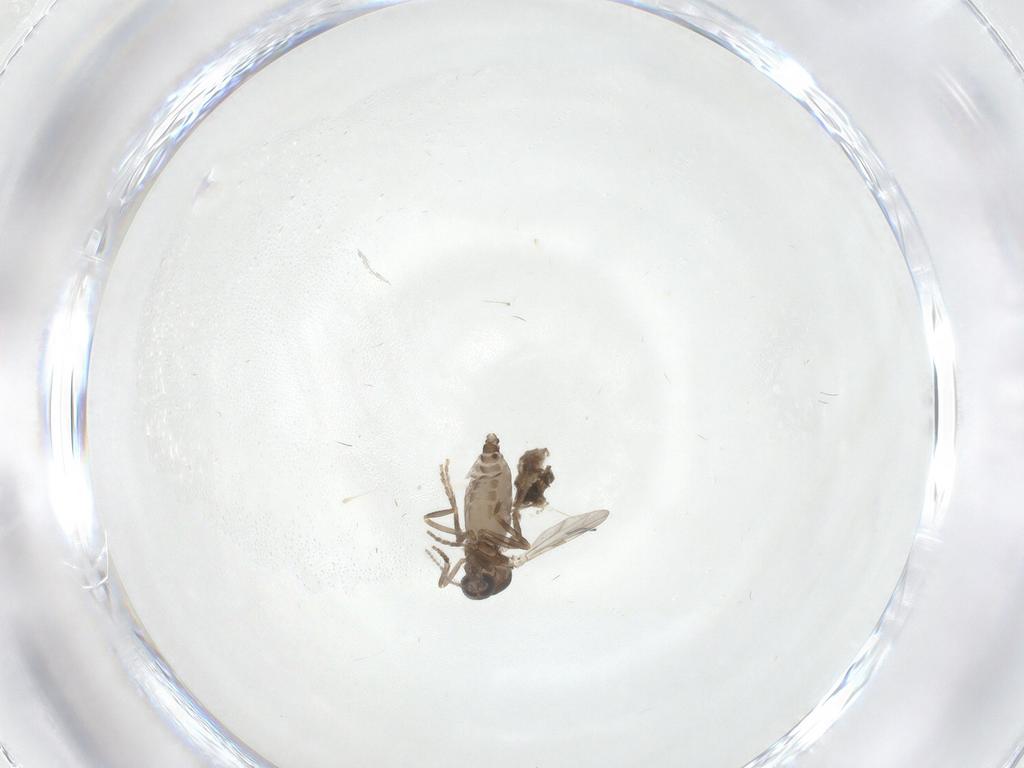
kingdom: Animalia
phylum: Arthropoda
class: Insecta
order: Diptera
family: Ceratopogonidae
